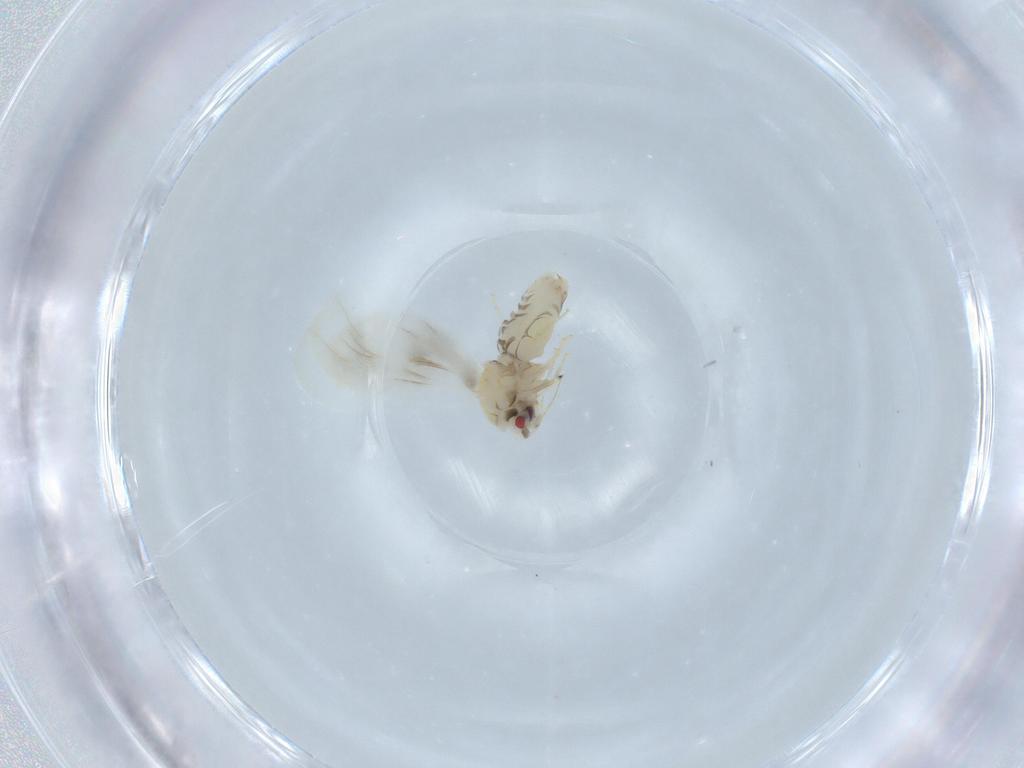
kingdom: Animalia
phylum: Arthropoda
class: Insecta
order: Hemiptera
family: Aleyrodidae
